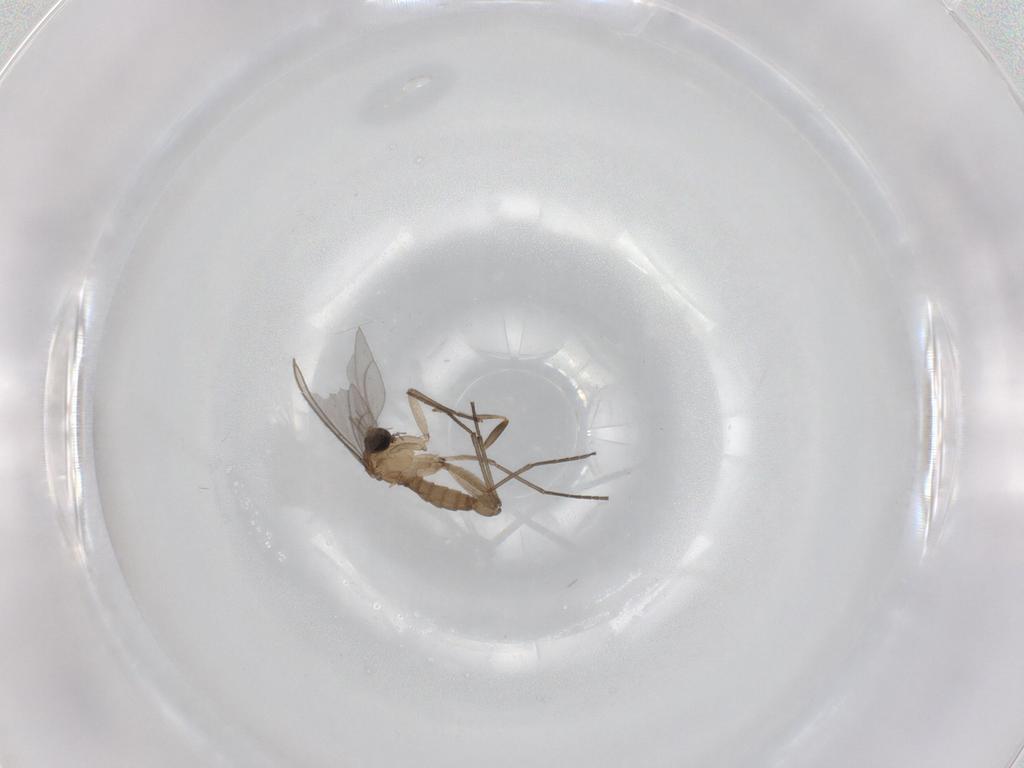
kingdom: Animalia
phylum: Arthropoda
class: Insecta
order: Diptera
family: Scatopsidae
